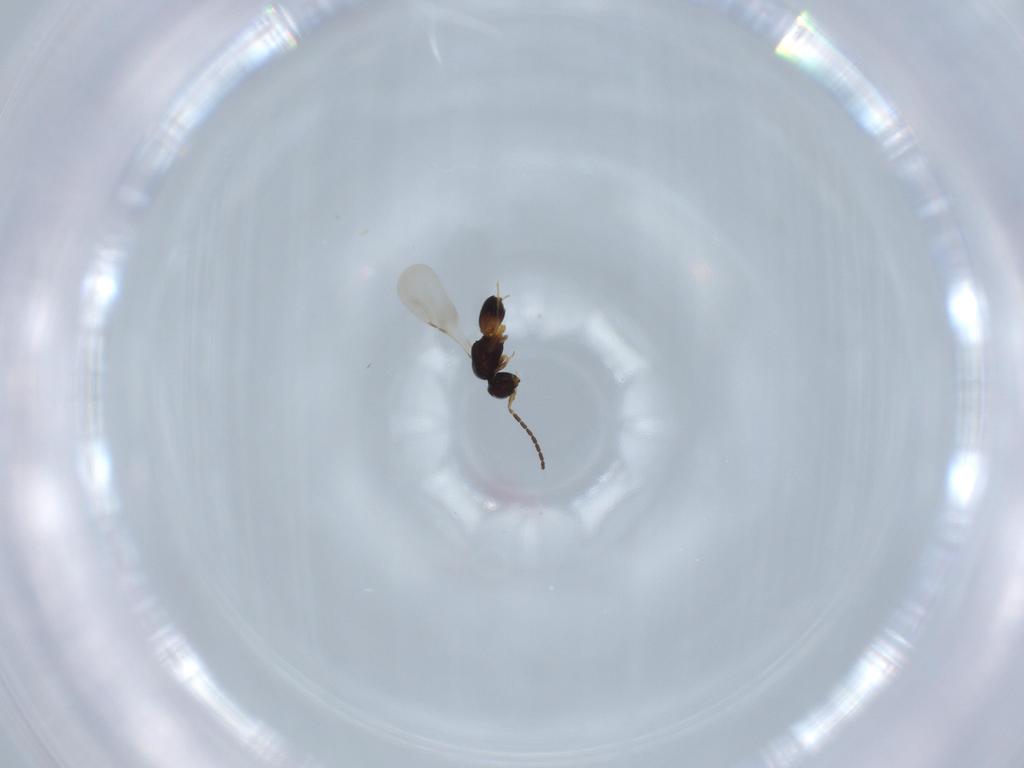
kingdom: Animalia
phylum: Arthropoda
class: Insecta
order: Hymenoptera
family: Ceraphronidae
